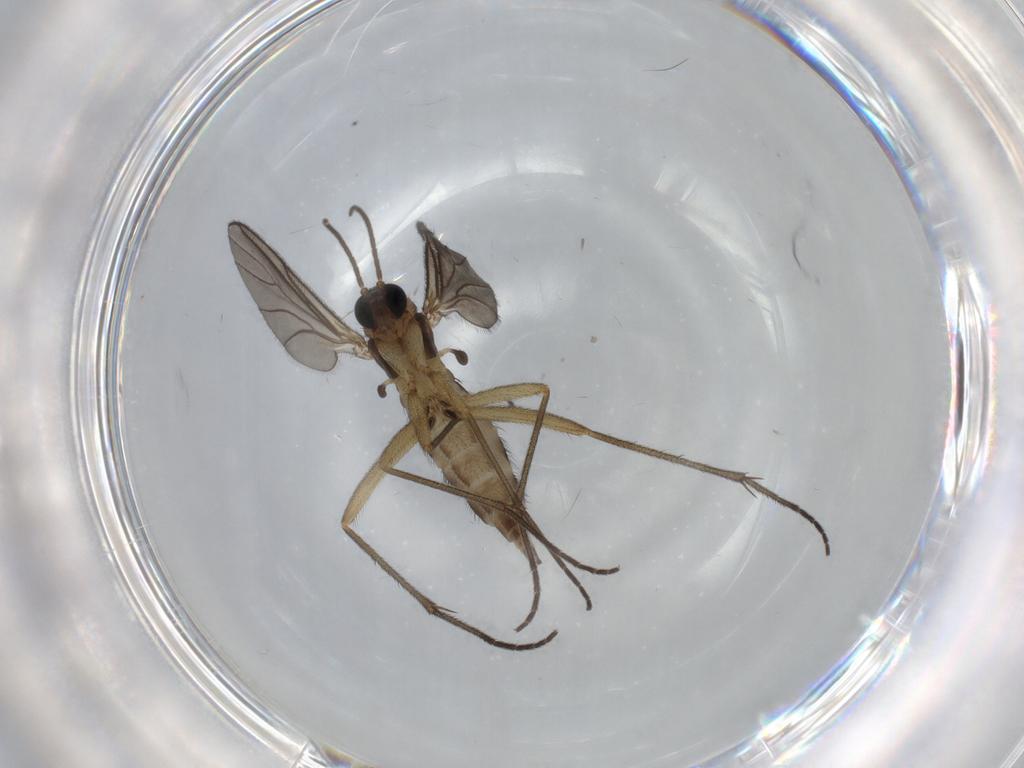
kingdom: Animalia
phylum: Arthropoda
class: Insecta
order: Diptera
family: Sciaridae
